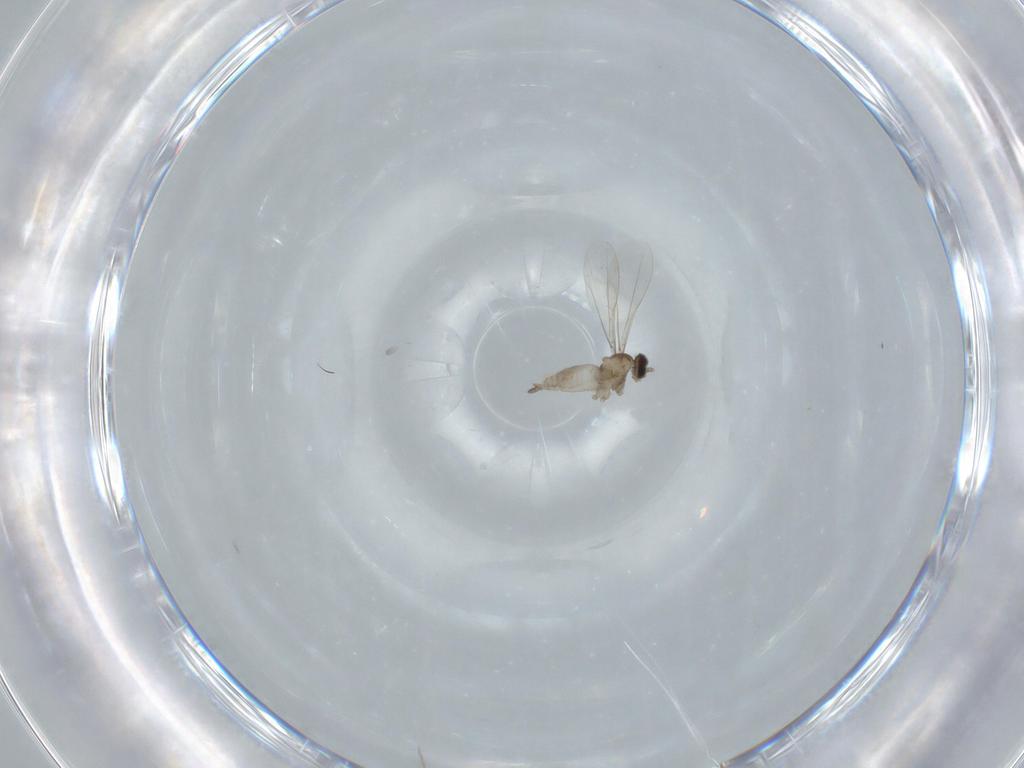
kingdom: Animalia
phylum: Arthropoda
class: Insecta
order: Diptera
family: Cecidomyiidae
